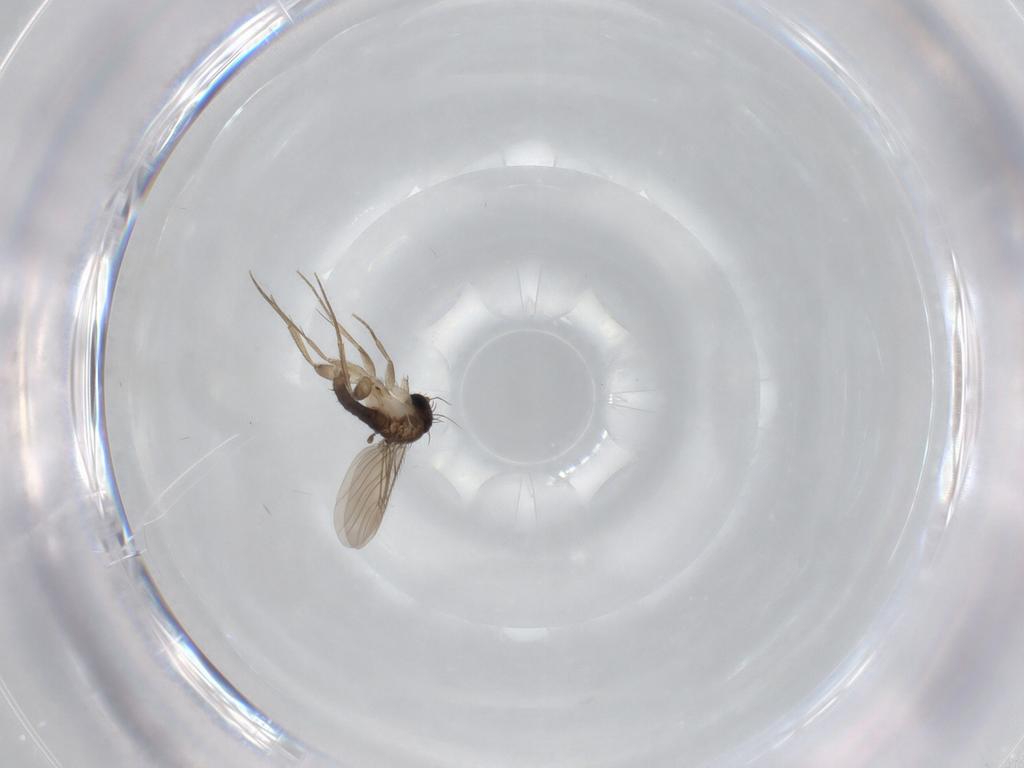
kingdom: Animalia
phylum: Arthropoda
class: Insecta
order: Diptera
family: Phoridae
